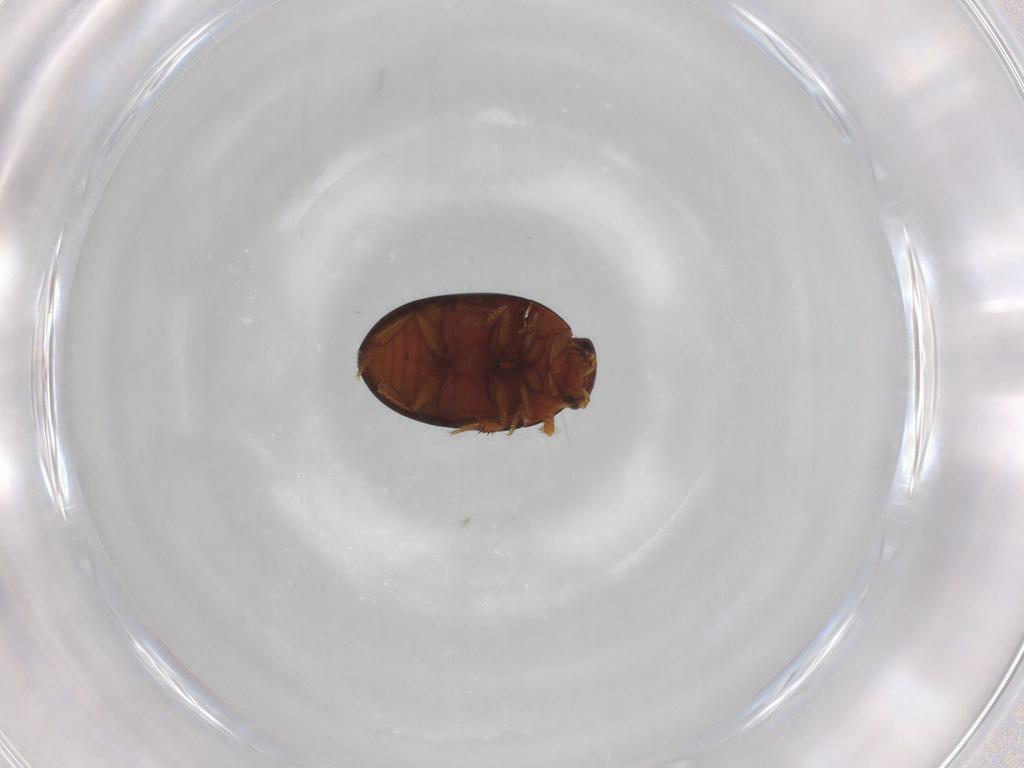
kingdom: Animalia
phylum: Arthropoda
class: Insecta
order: Coleoptera
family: Hydrophilidae
